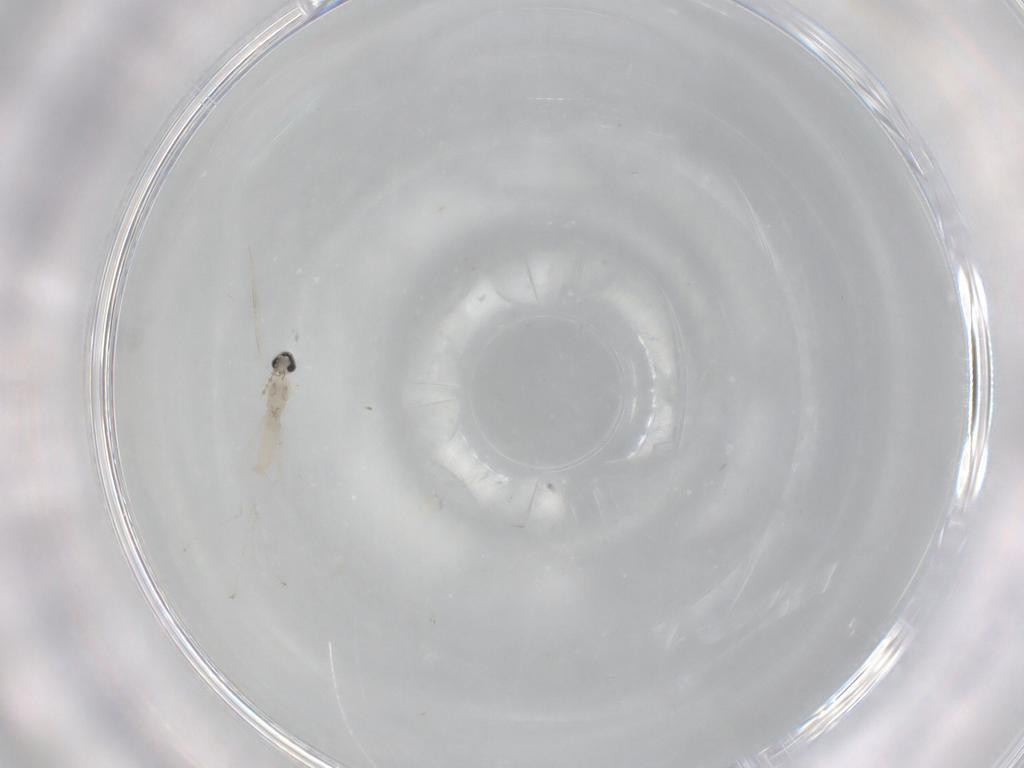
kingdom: Animalia
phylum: Arthropoda
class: Insecta
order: Diptera
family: Cecidomyiidae
